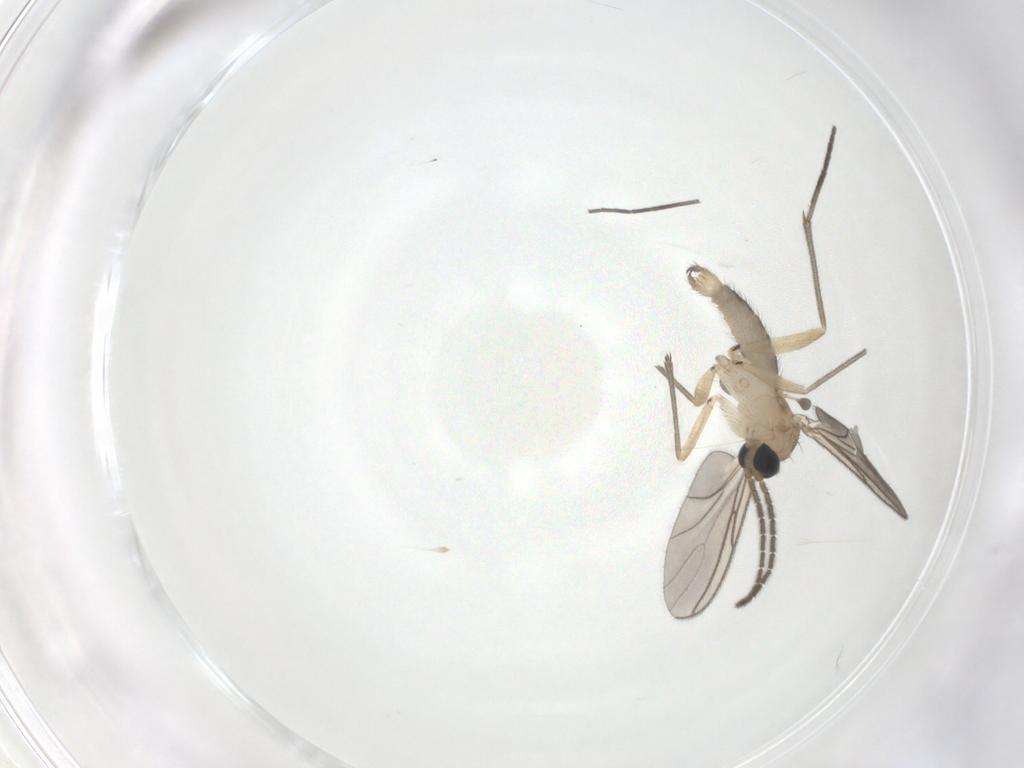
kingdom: Animalia
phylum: Arthropoda
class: Insecta
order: Diptera
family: Sciaridae
